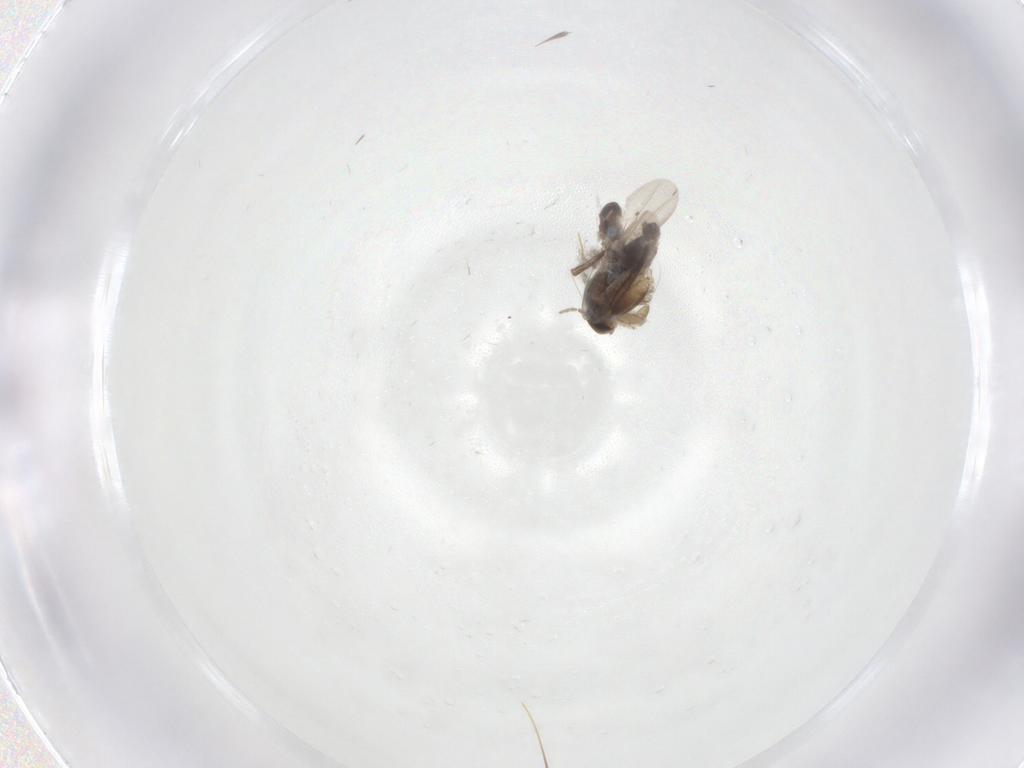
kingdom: Animalia
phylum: Arthropoda
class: Insecta
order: Diptera
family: Phoridae
